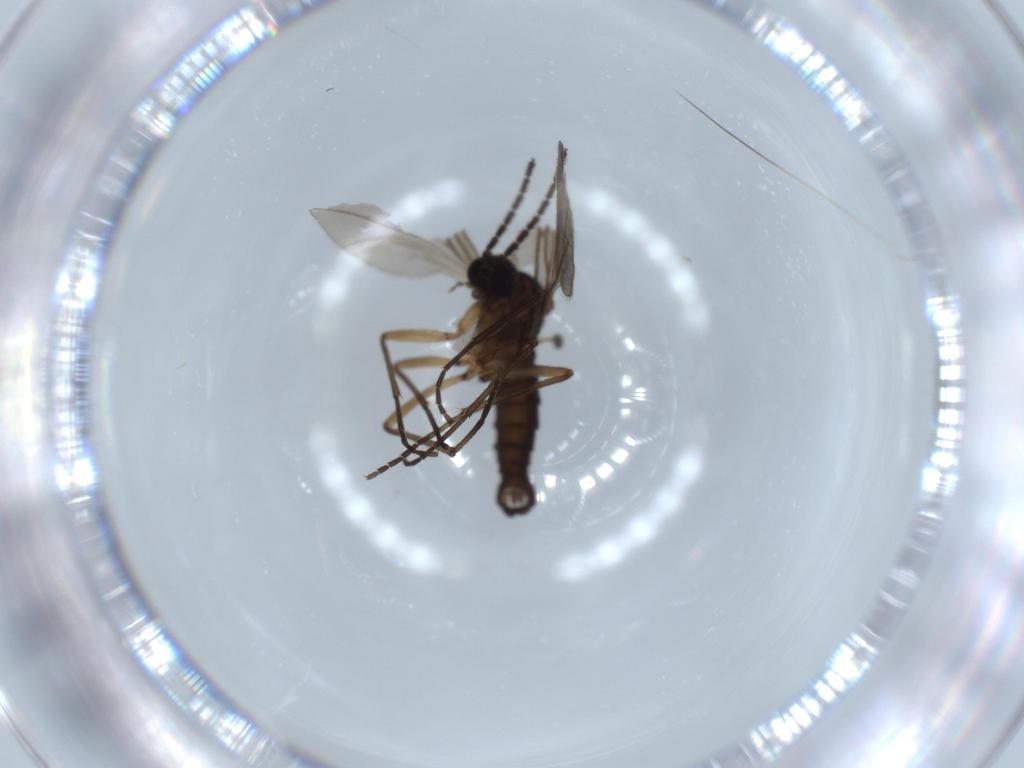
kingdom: Animalia
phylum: Arthropoda
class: Insecta
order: Diptera
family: Sciaridae
